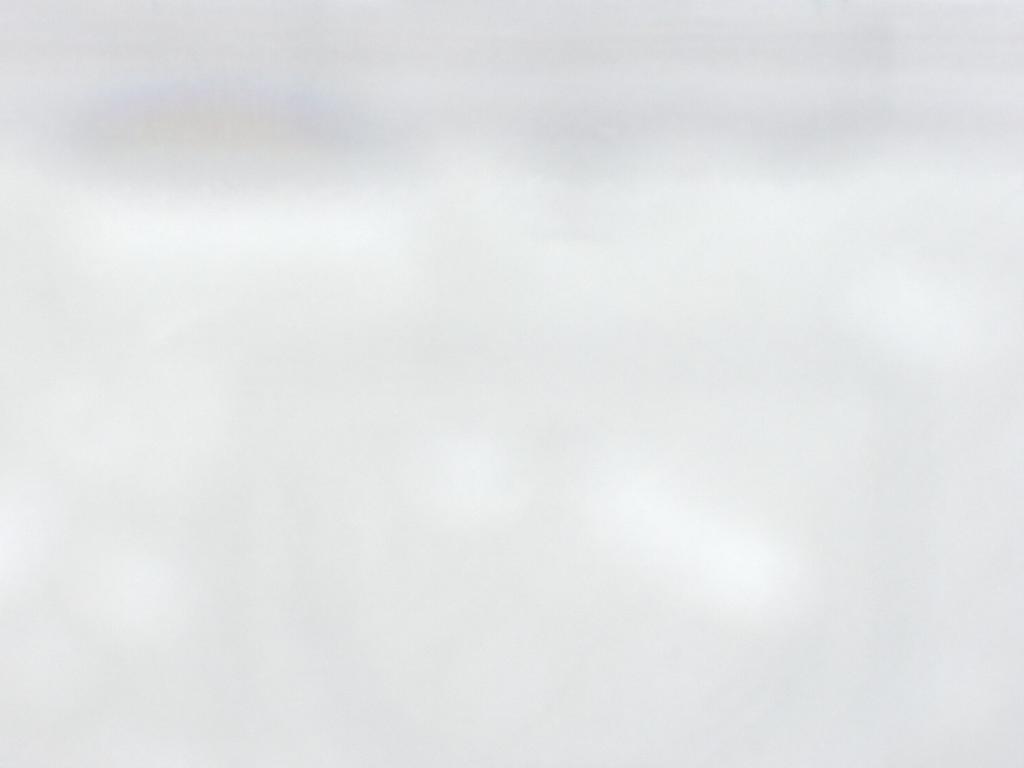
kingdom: Animalia
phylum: Arthropoda
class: Insecta
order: Diptera
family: Cecidomyiidae
